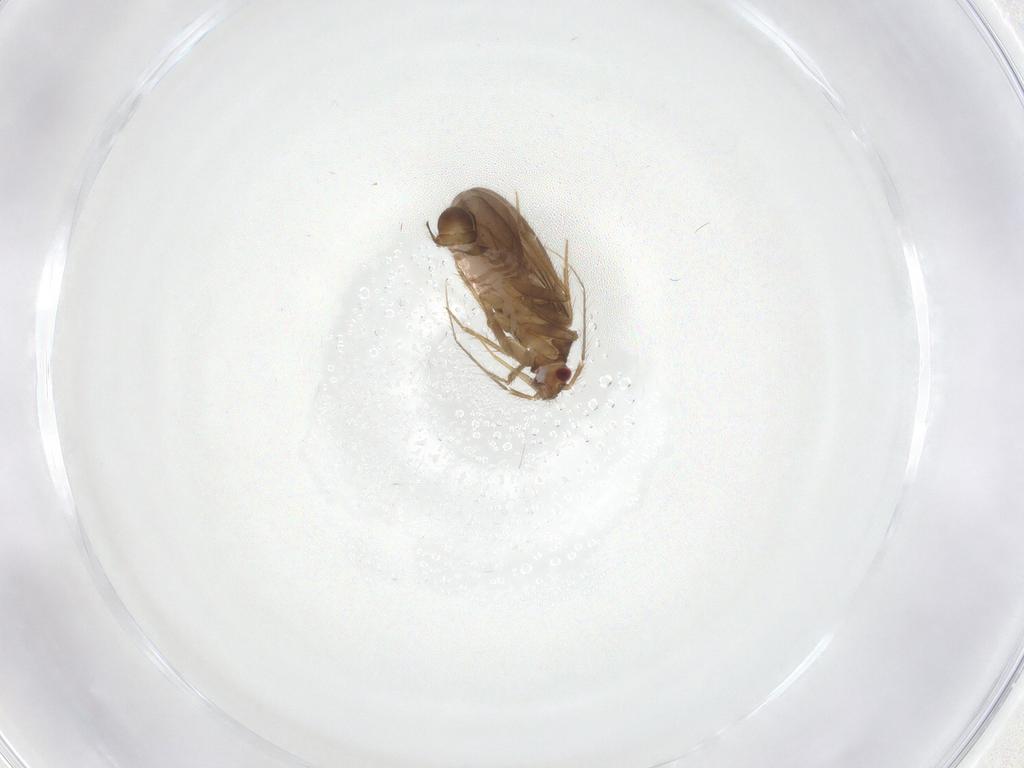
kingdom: Animalia
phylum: Arthropoda
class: Insecta
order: Hemiptera
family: Ceratocombidae
